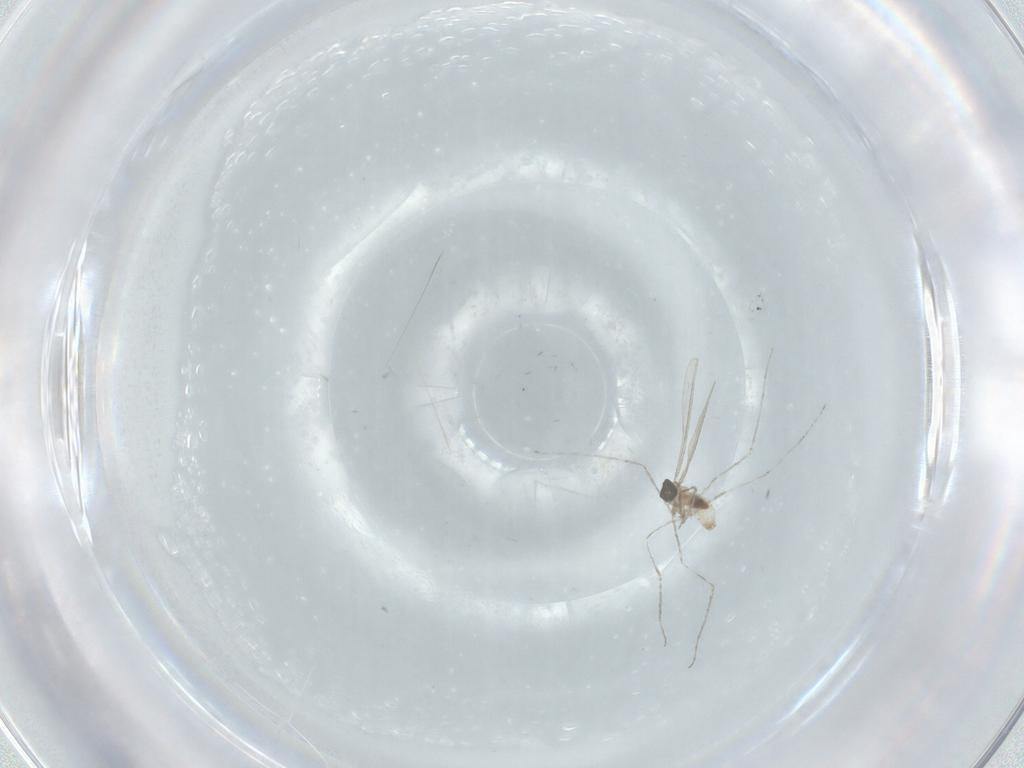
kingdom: Animalia
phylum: Arthropoda
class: Insecta
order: Diptera
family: Cecidomyiidae
